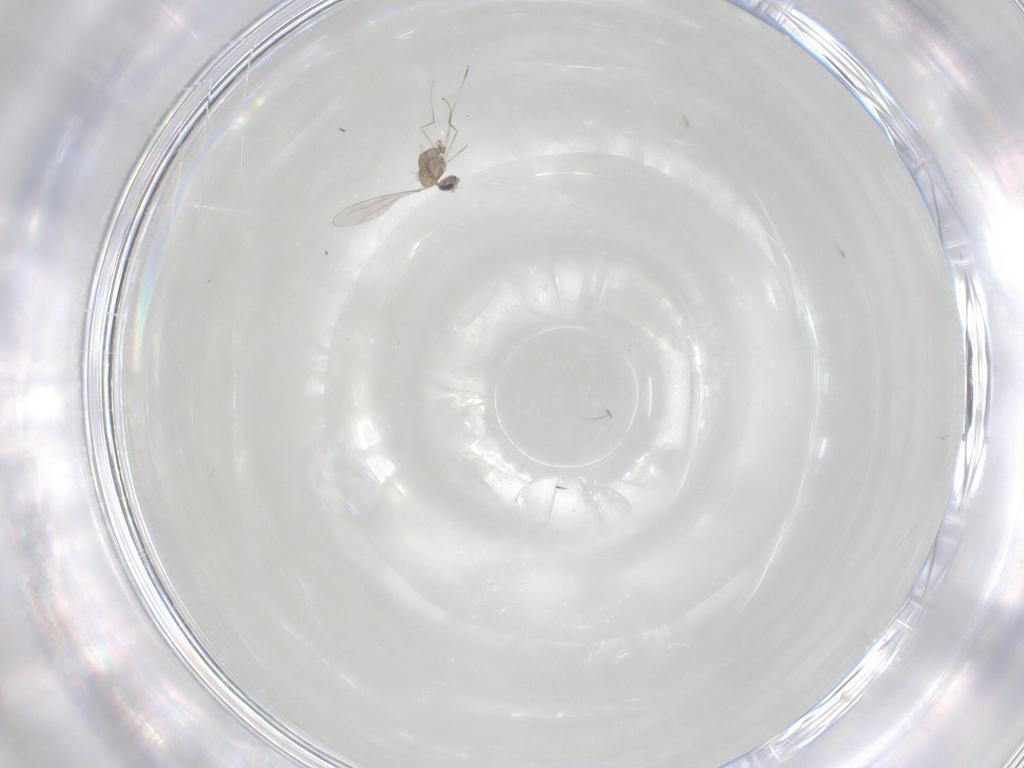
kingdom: Animalia
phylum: Arthropoda
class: Insecta
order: Diptera
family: Cecidomyiidae
